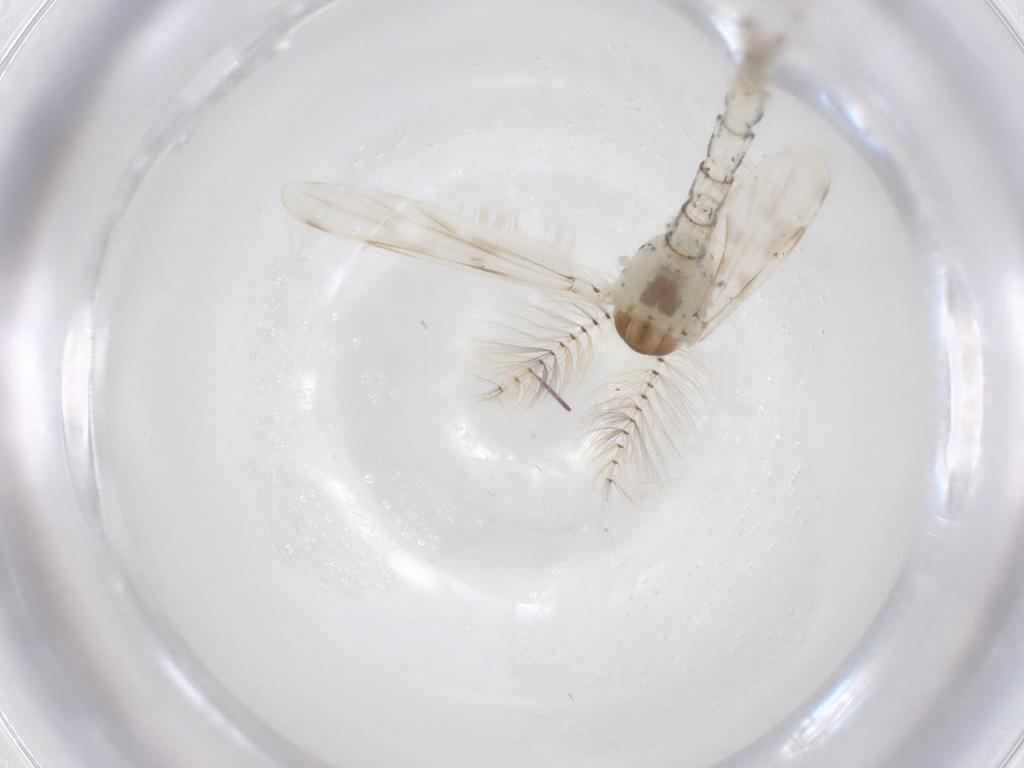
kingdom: Animalia
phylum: Arthropoda
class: Insecta
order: Diptera
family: Chaoboridae
